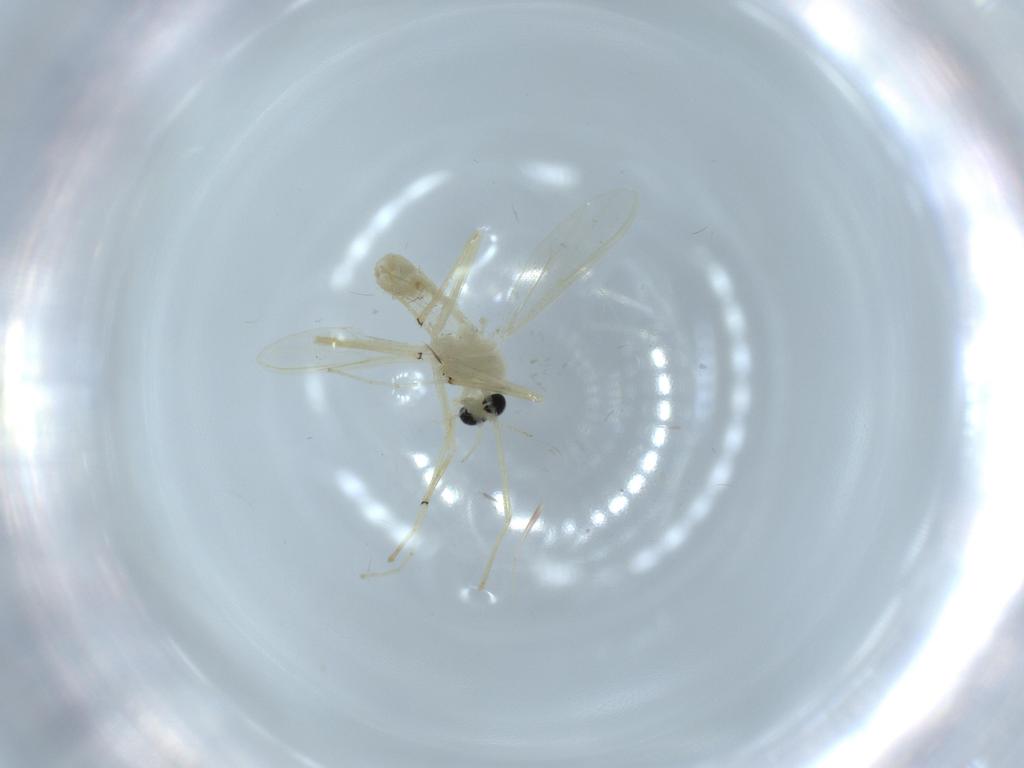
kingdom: Animalia
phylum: Arthropoda
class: Insecta
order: Diptera
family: Chironomidae
